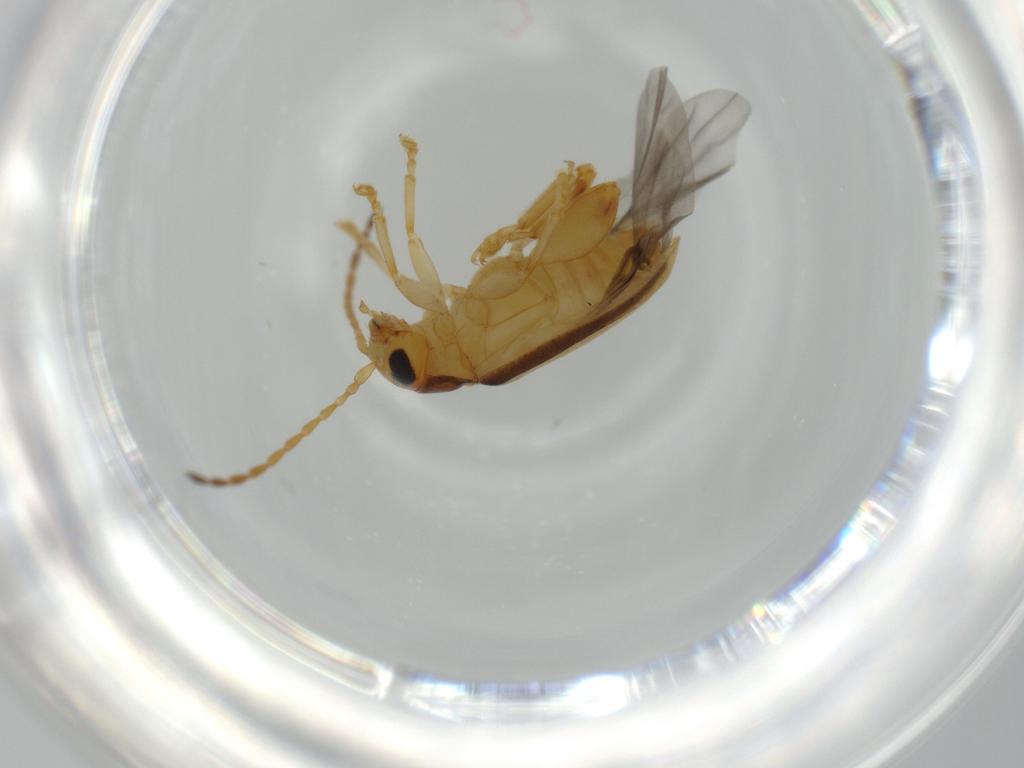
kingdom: Animalia
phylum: Arthropoda
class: Insecta
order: Coleoptera
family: Chrysomelidae
